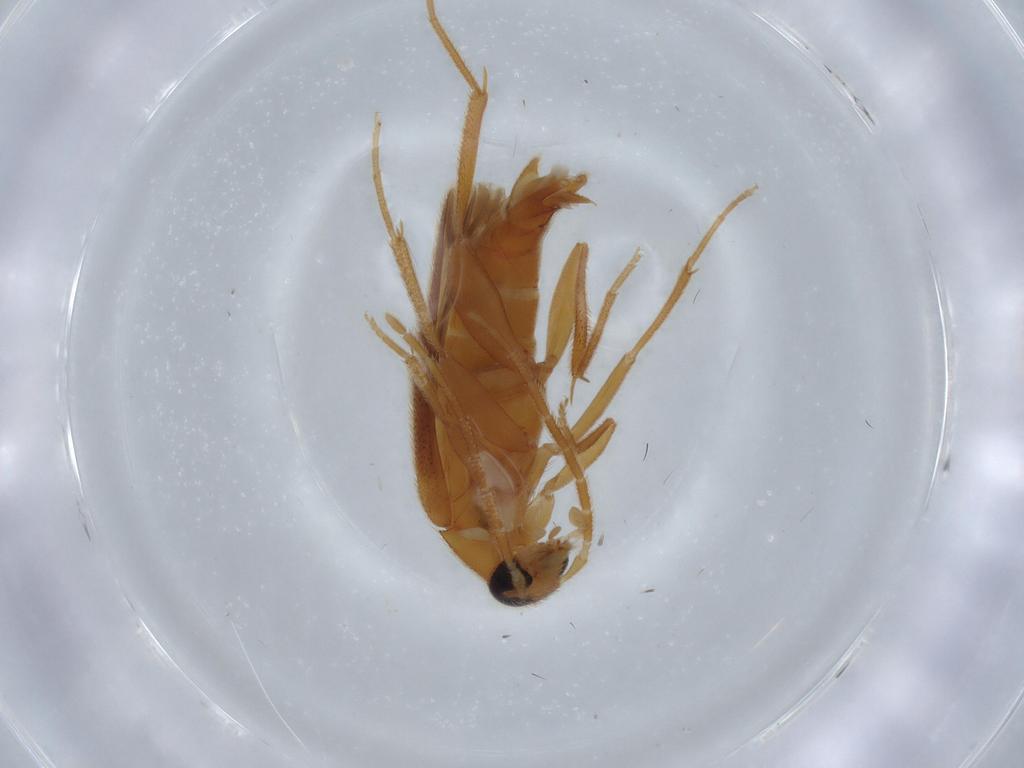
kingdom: Animalia
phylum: Arthropoda
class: Insecta
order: Coleoptera
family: Scraptiidae
